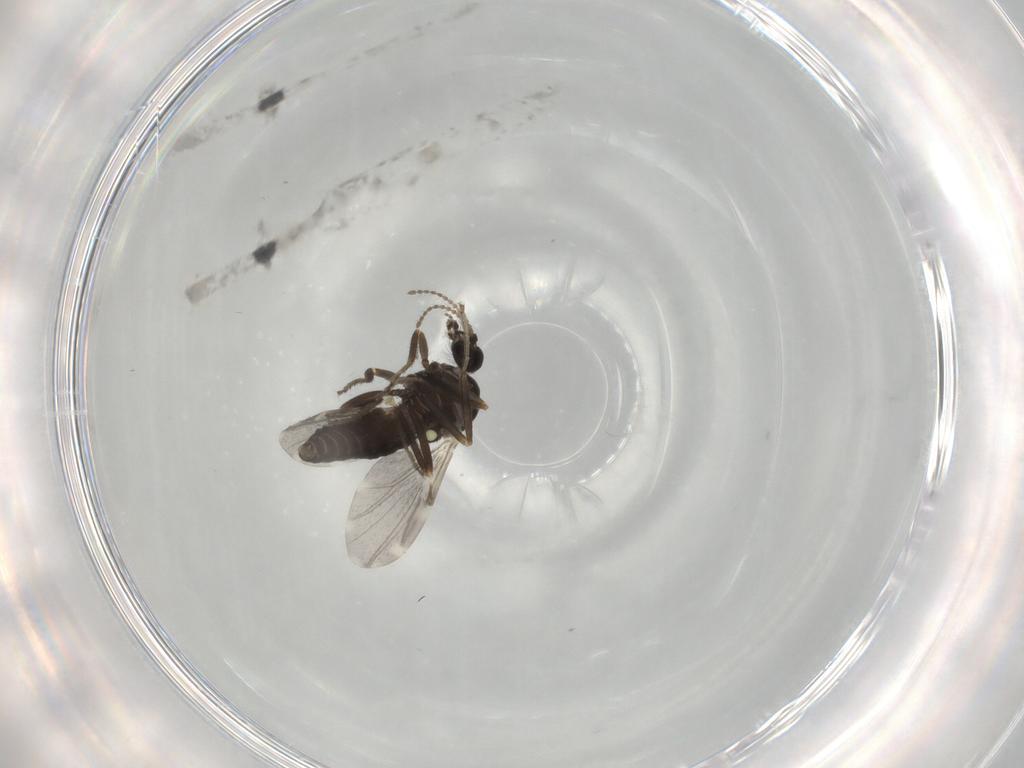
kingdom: Animalia
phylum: Arthropoda
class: Insecta
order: Diptera
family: Ceratopogonidae
